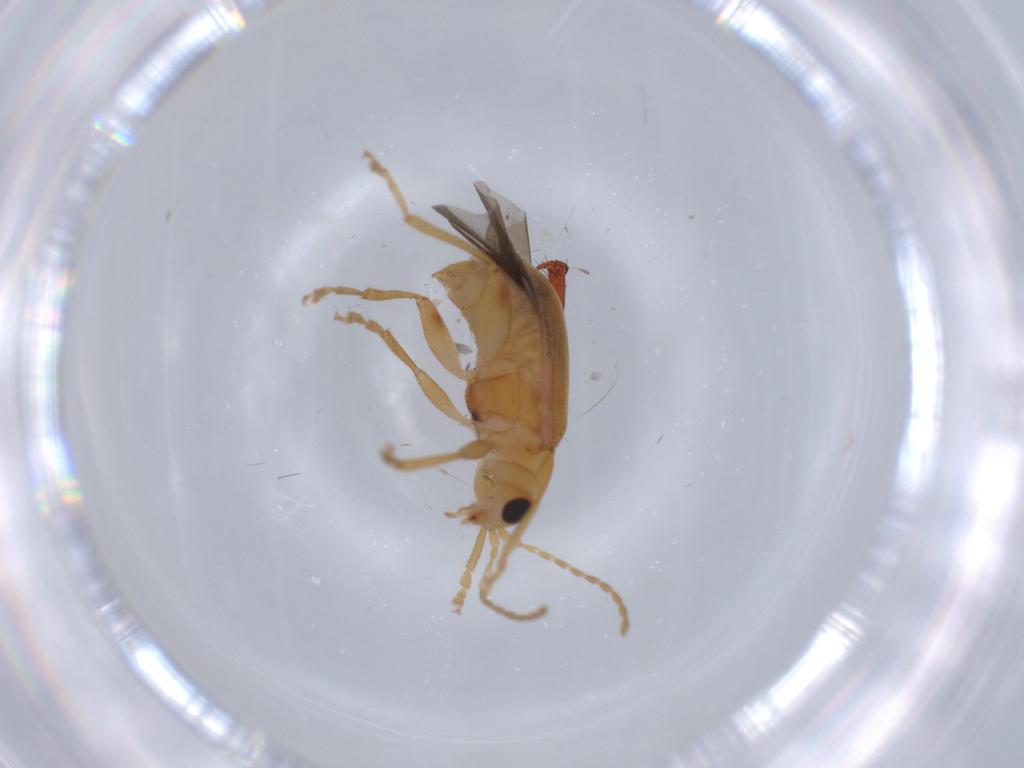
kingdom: Animalia
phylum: Arthropoda
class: Insecta
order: Coleoptera
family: Chrysomelidae
